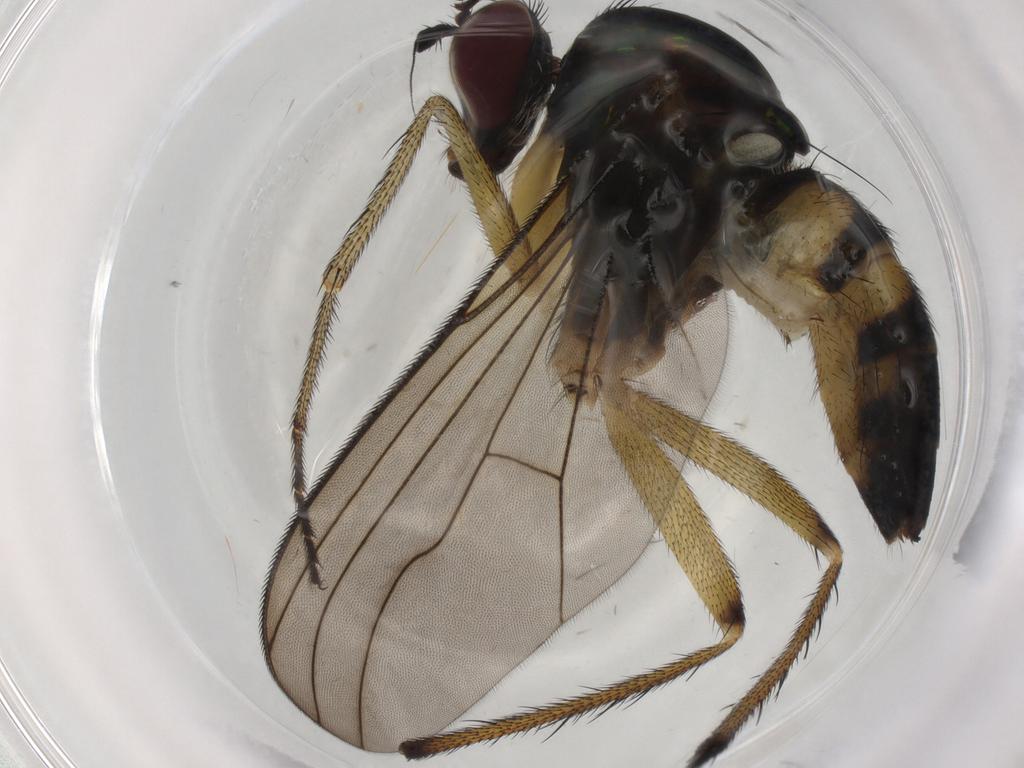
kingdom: Animalia
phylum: Arthropoda
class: Insecta
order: Diptera
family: Dolichopodidae
